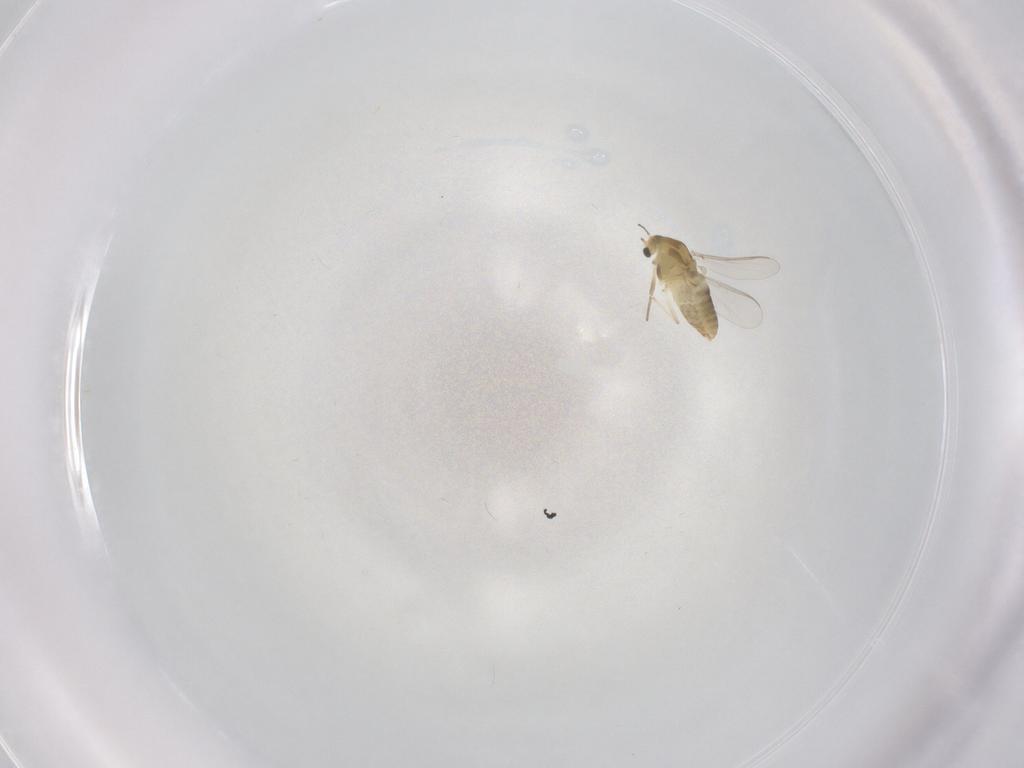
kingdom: Animalia
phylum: Arthropoda
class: Insecta
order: Diptera
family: Chironomidae
